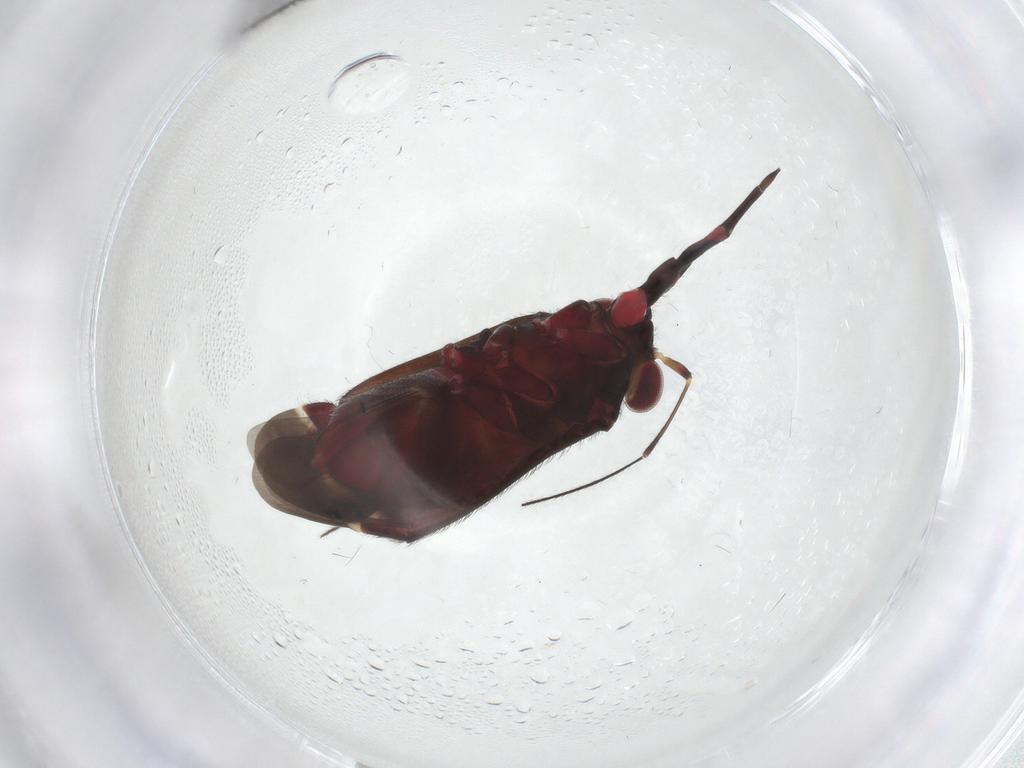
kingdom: Animalia
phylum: Arthropoda
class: Insecta
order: Hemiptera
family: Miridae
